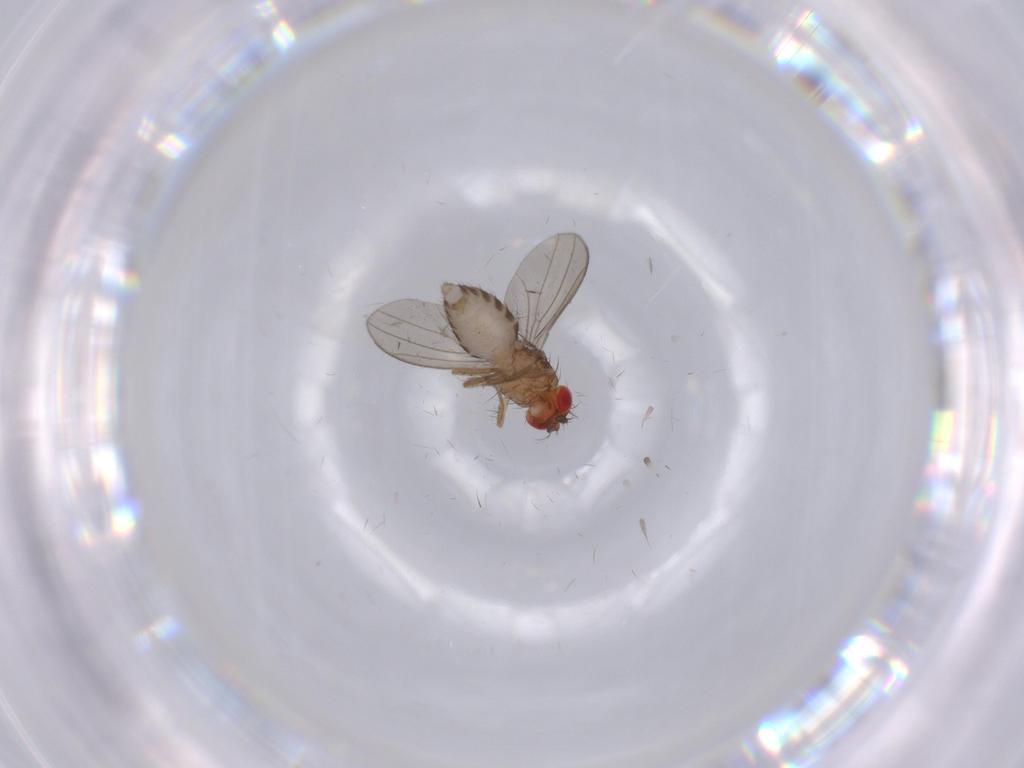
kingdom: Animalia
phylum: Arthropoda
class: Insecta
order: Diptera
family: Drosophilidae
